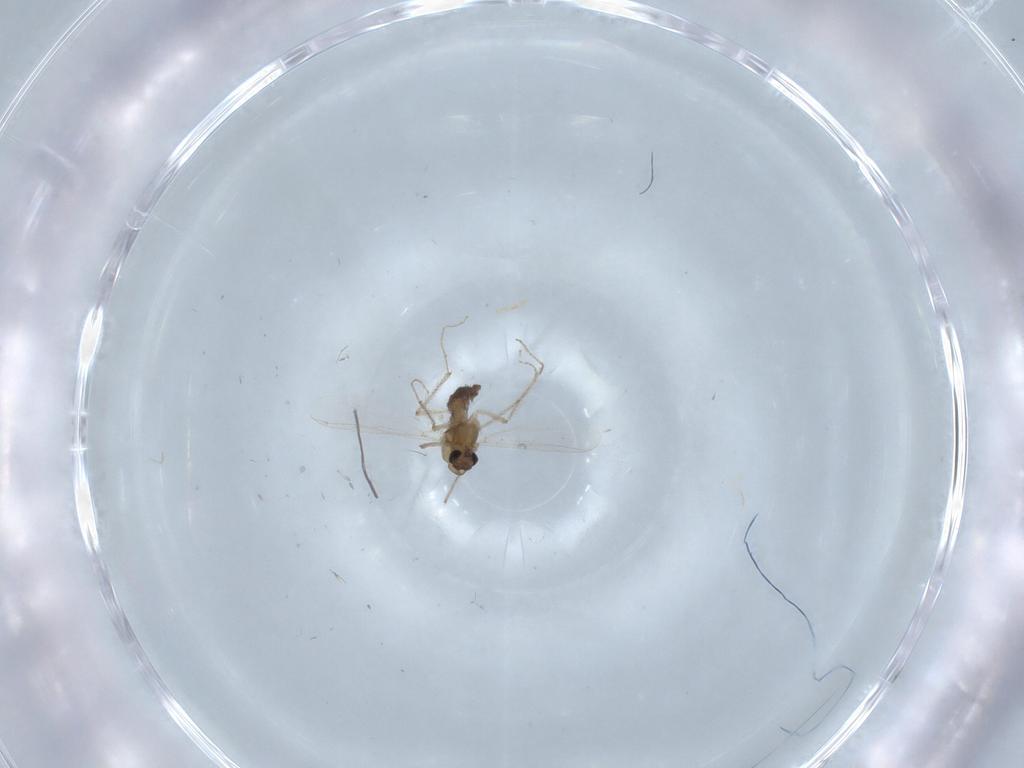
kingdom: Animalia
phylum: Arthropoda
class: Insecta
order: Diptera
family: Chironomidae
